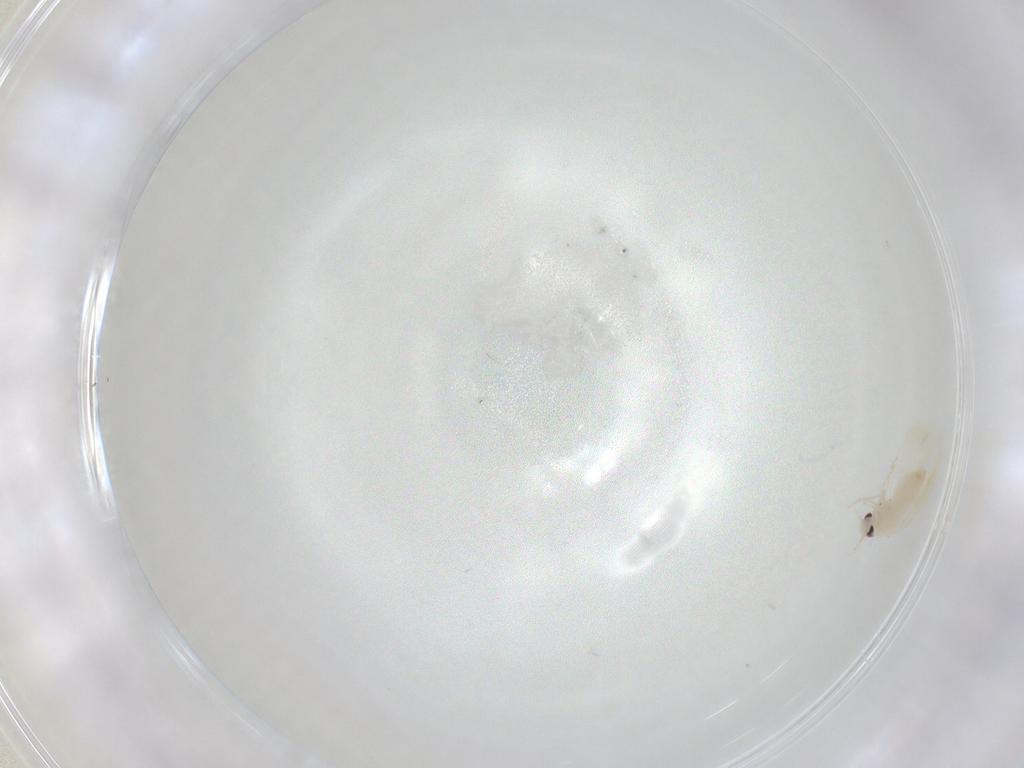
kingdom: Animalia
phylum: Arthropoda
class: Insecta
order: Hemiptera
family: Aleyrodidae
